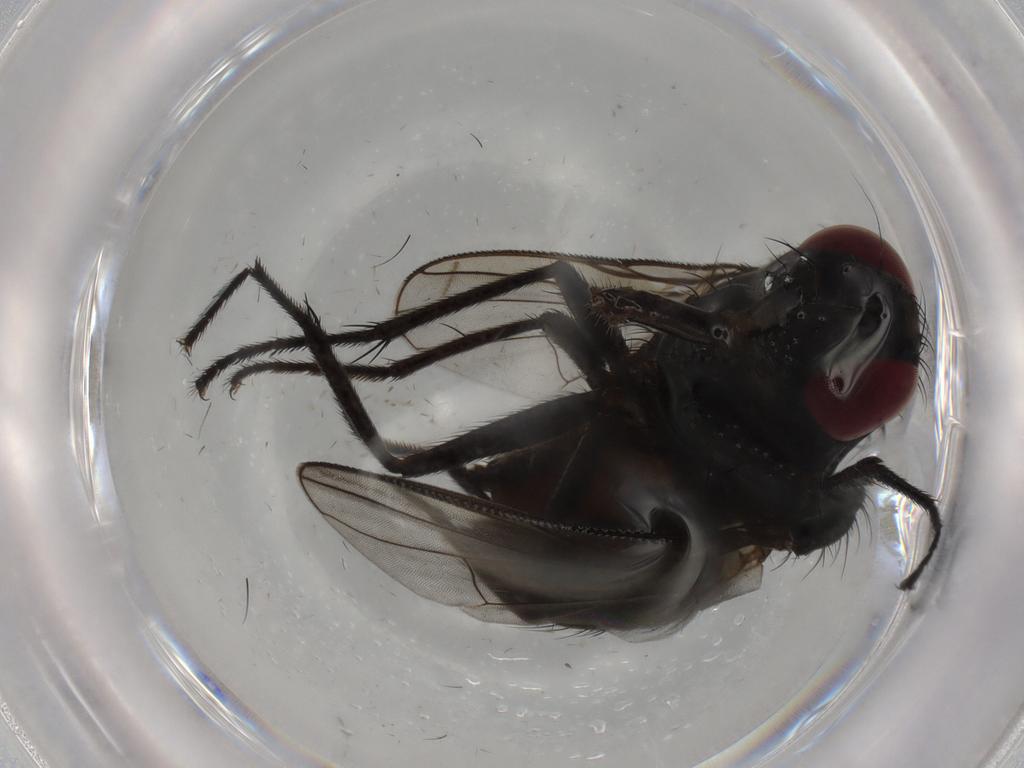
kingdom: Animalia
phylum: Arthropoda
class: Insecta
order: Diptera
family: Muscidae
